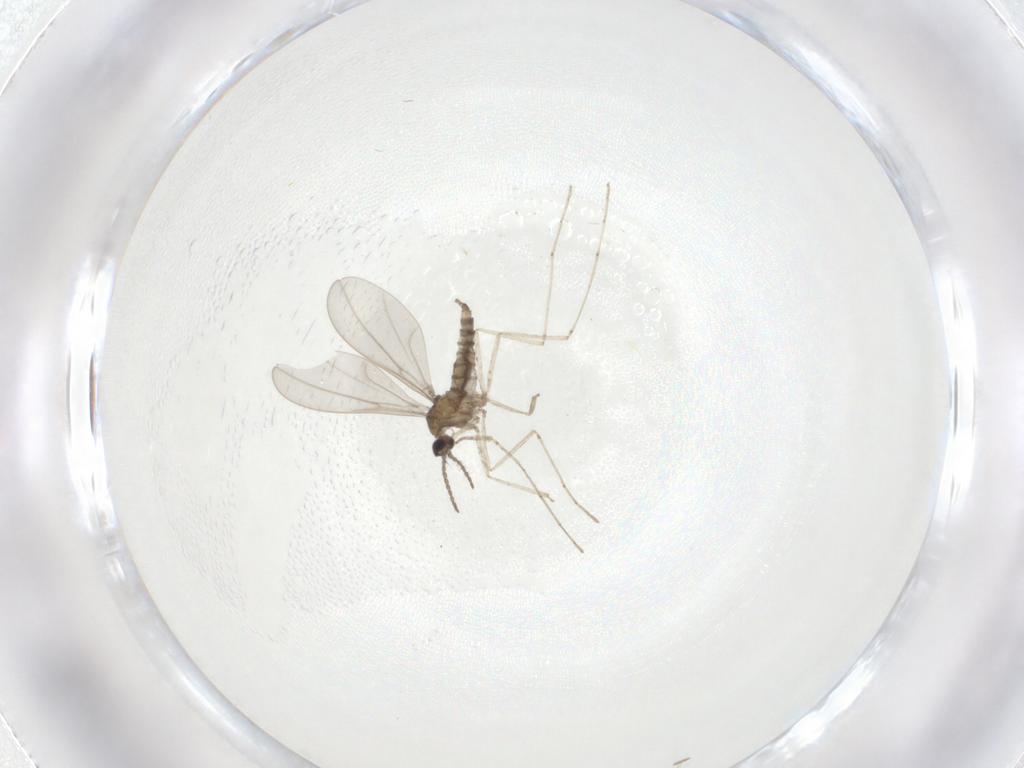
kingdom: Animalia
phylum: Arthropoda
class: Insecta
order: Diptera
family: Cecidomyiidae
